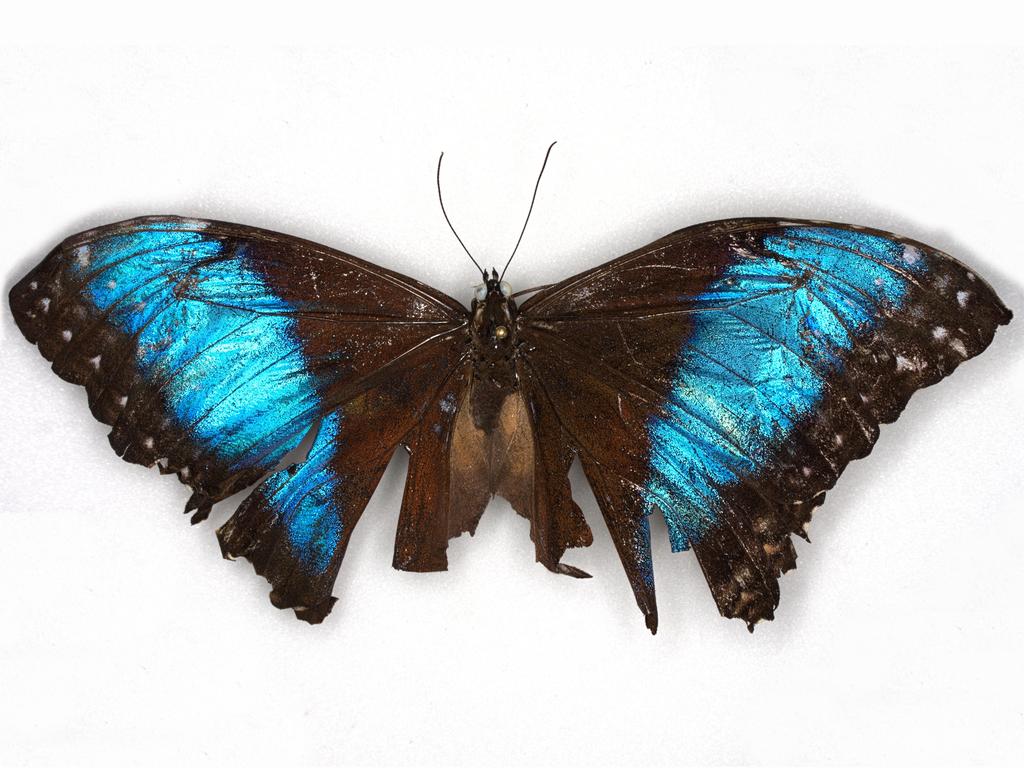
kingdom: Animalia
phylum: Arthropoda
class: Insecta
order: Lepidoptera
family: Nymphalidae
